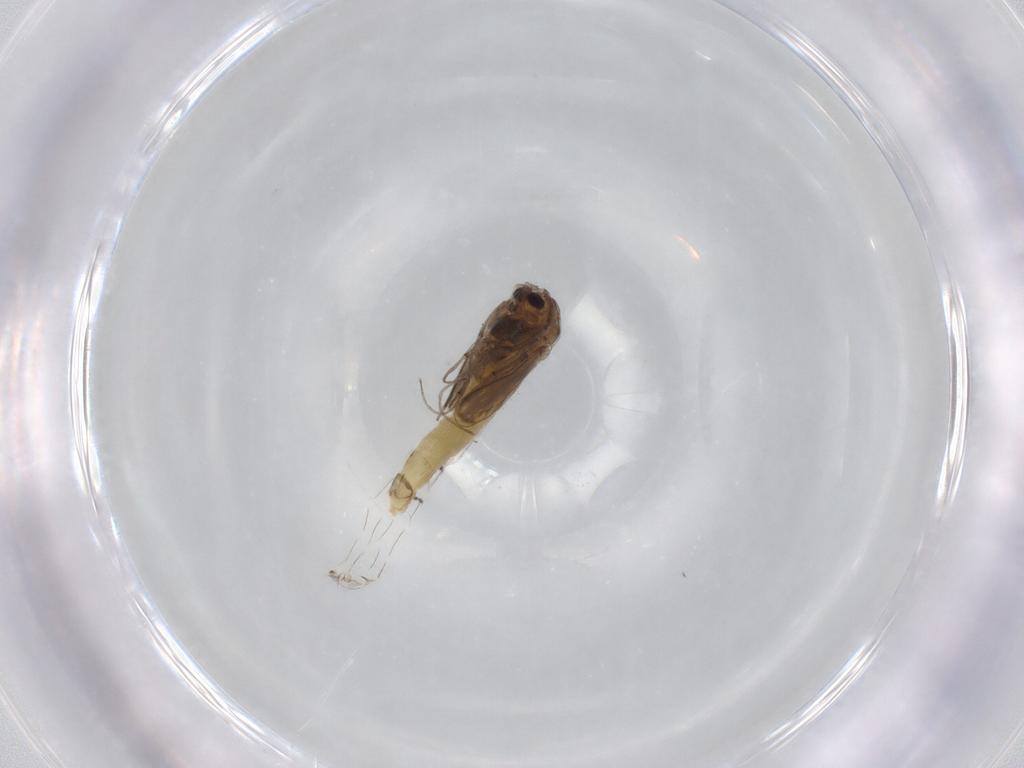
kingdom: Animalia
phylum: Arthropoda
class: Insecta
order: Diptera
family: Chironomidae
